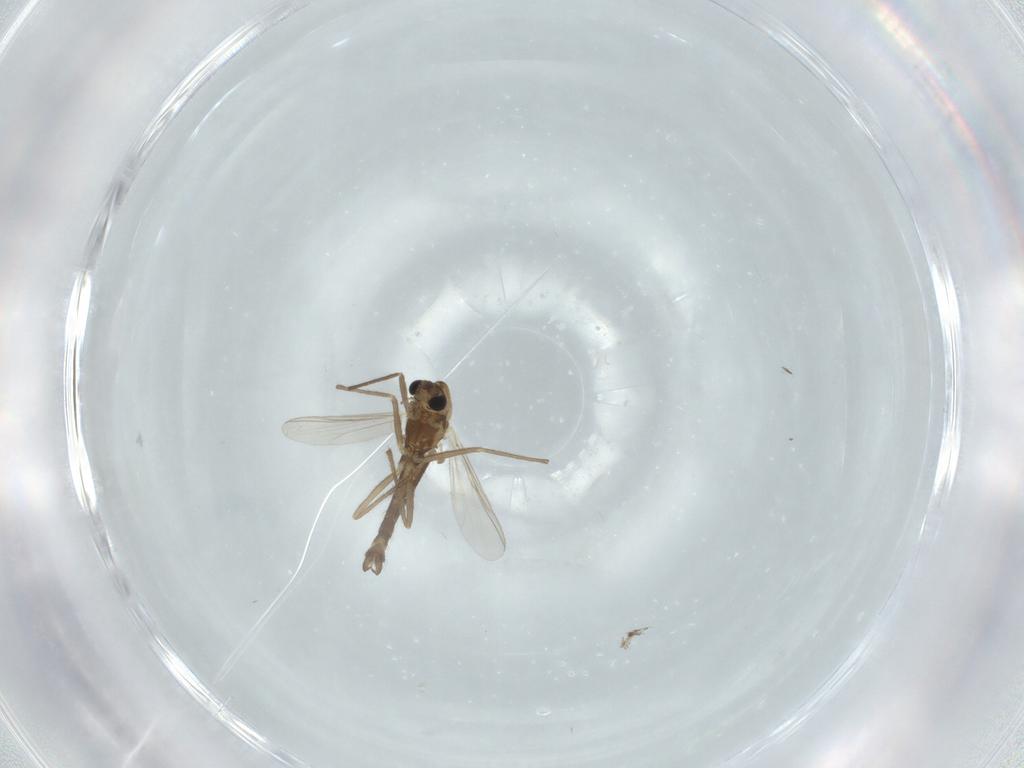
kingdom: Animalia
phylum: Arthropoda
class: Insecta
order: Diptera
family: Chironomidae
